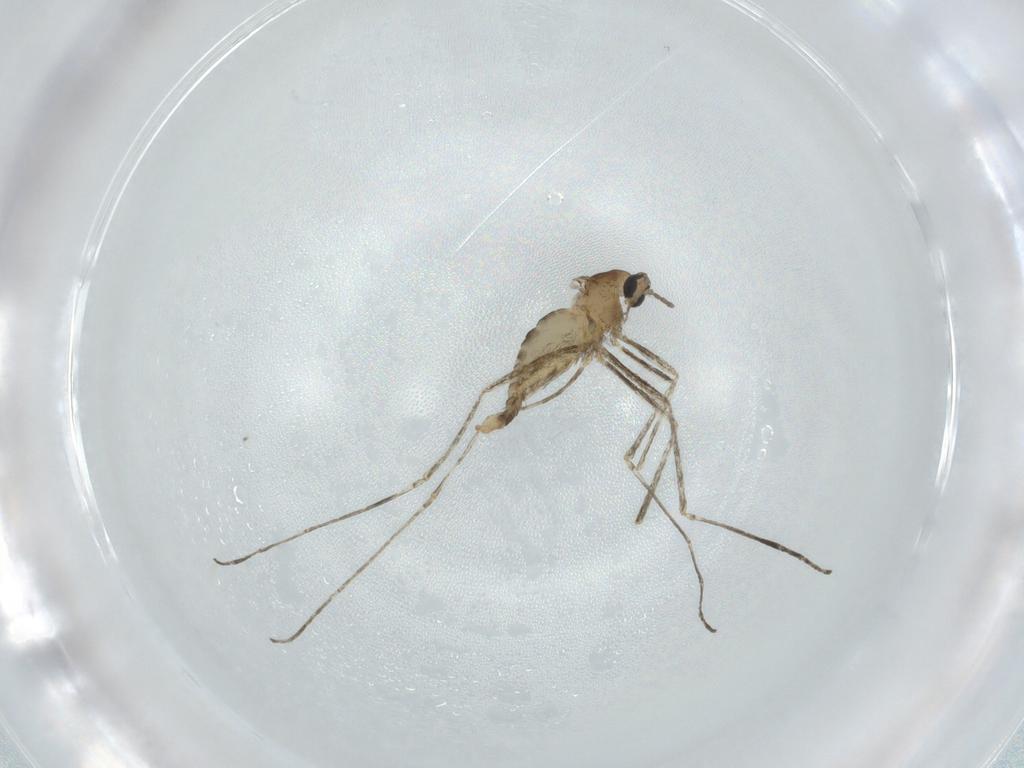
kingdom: Animalia
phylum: Arthropoda
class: Insecta
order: Diptera
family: Cecidomyiidae
